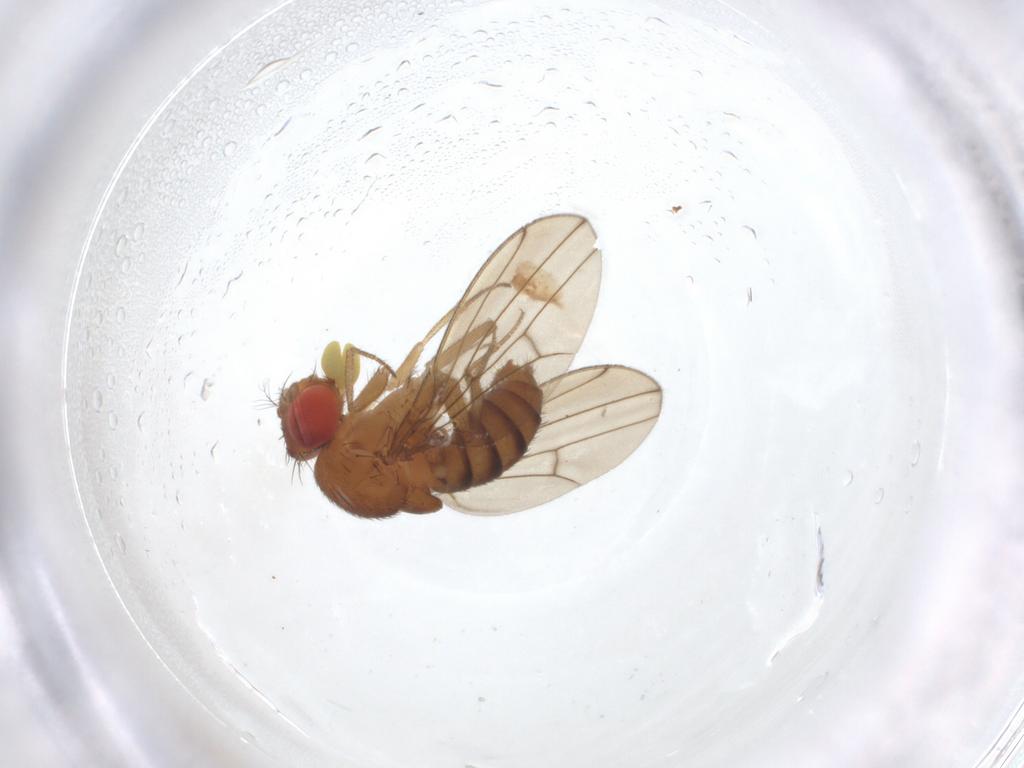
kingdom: Animalia
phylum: Arthropoda
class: Insecta
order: Diptera
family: Drosophilidae
